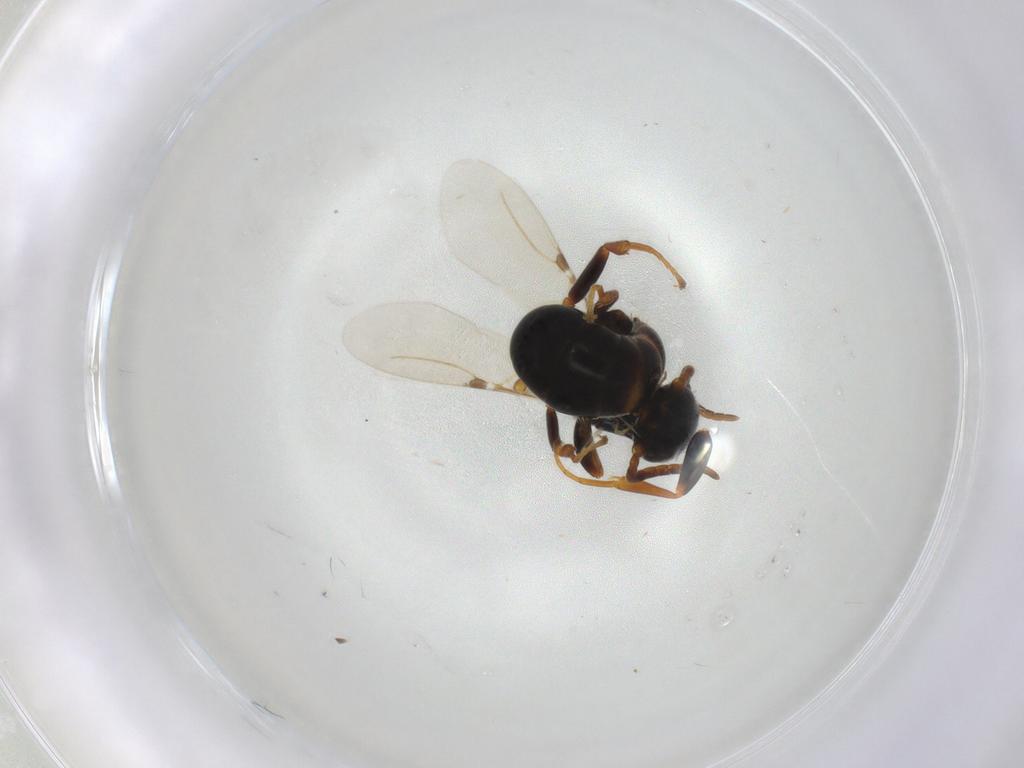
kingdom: Animalia
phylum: Arthropoda
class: Insecta
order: Hymenoptera
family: Bethylidae
